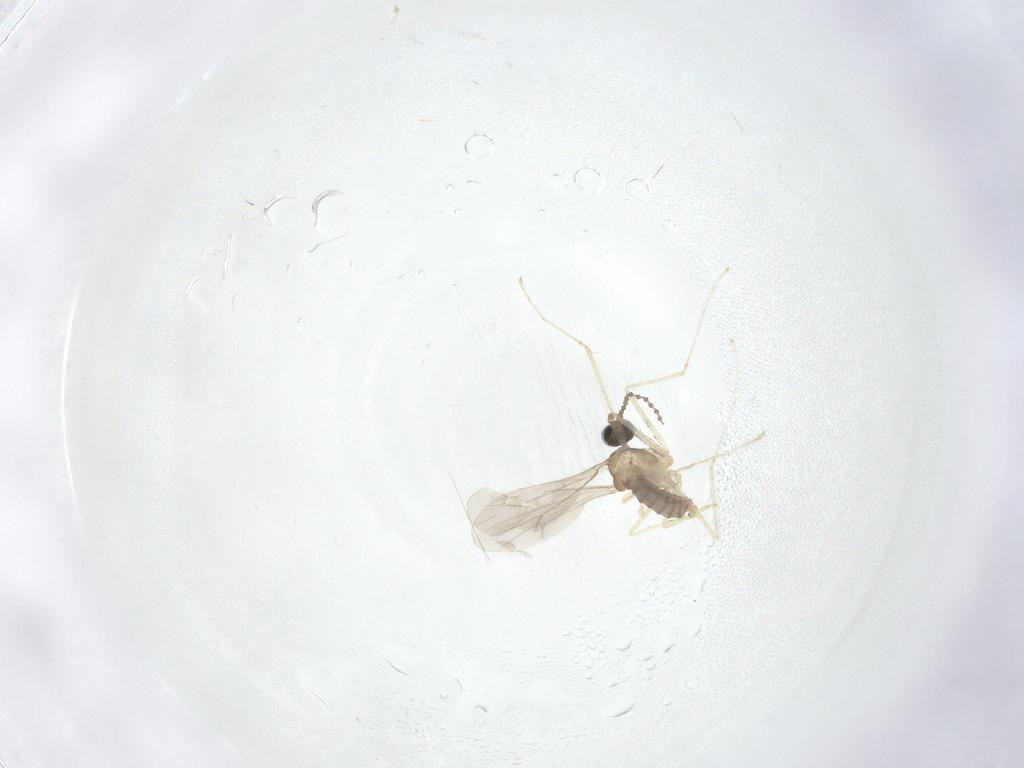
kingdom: Animalia
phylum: Arthropoda
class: Insecta
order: Diptera
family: Cecidomyiidae
